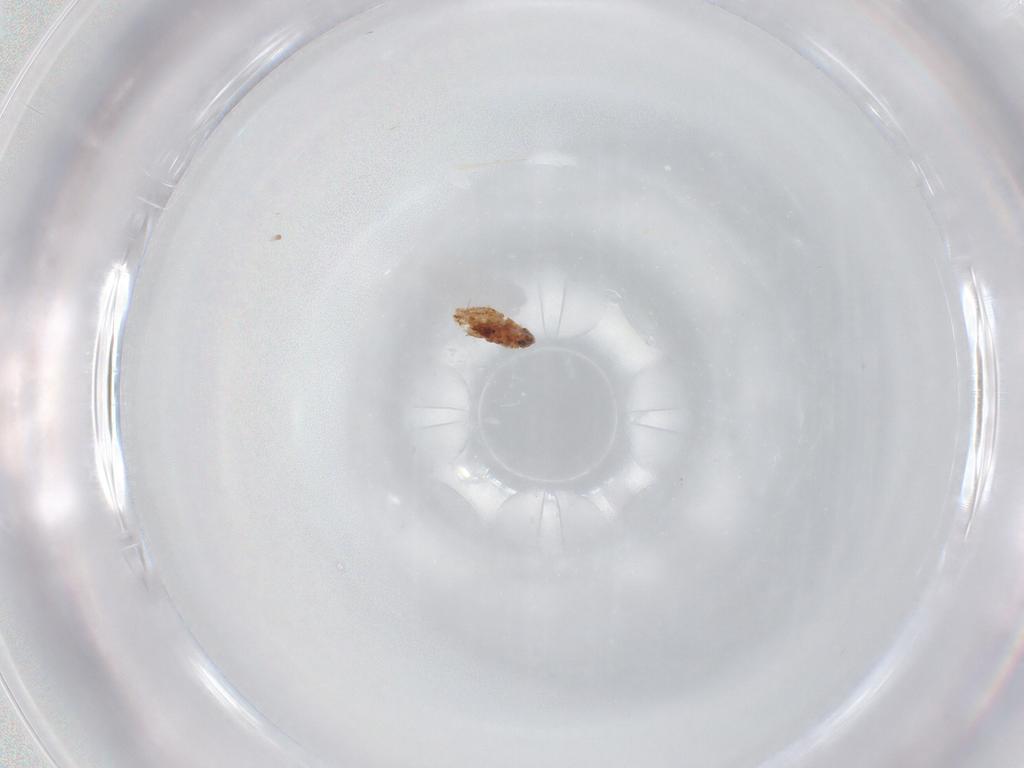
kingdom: Animalia
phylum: Arthropoda
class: Insecta
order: Psocodea
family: Peripsocidae
